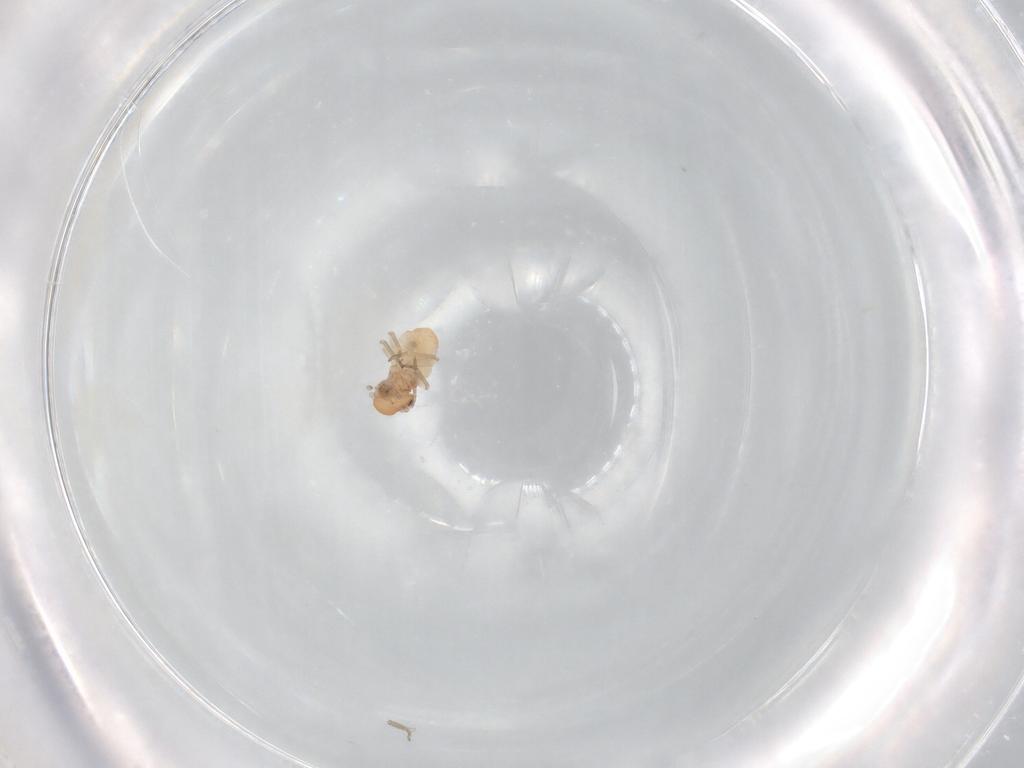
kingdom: Animalia
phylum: Arthropoda
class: Insecta
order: Psocodea
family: Caeciliusidae
